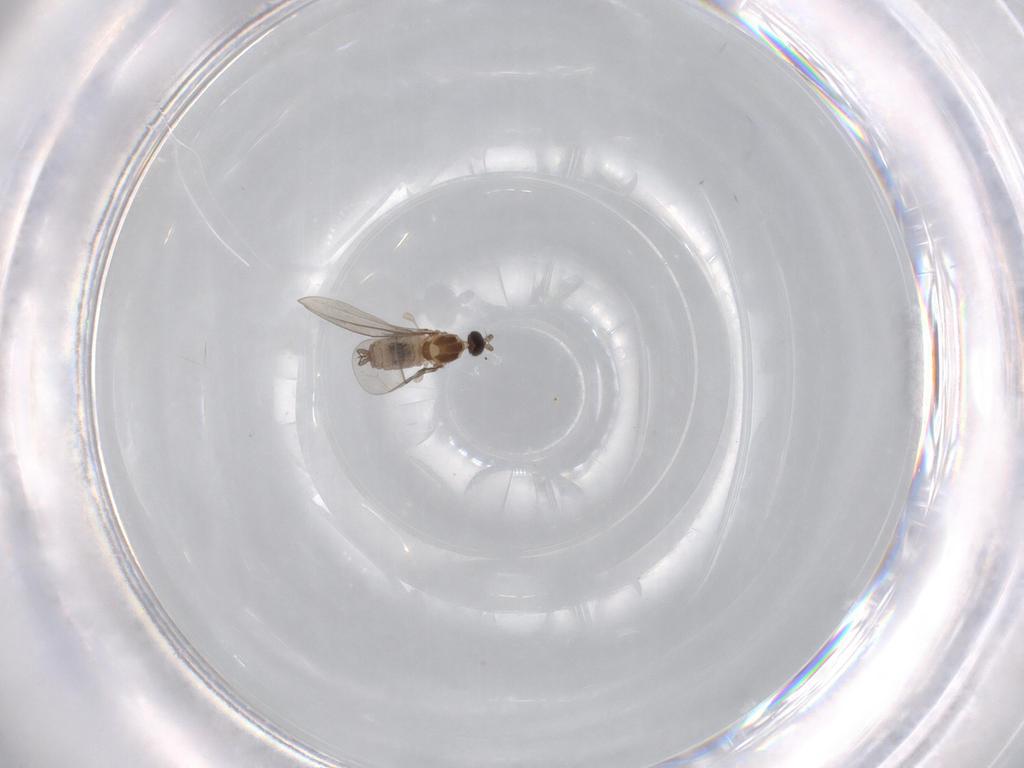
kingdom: Animalia
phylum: Arthropoda
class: Insecta
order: Diptera
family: Cecidomyiidae
